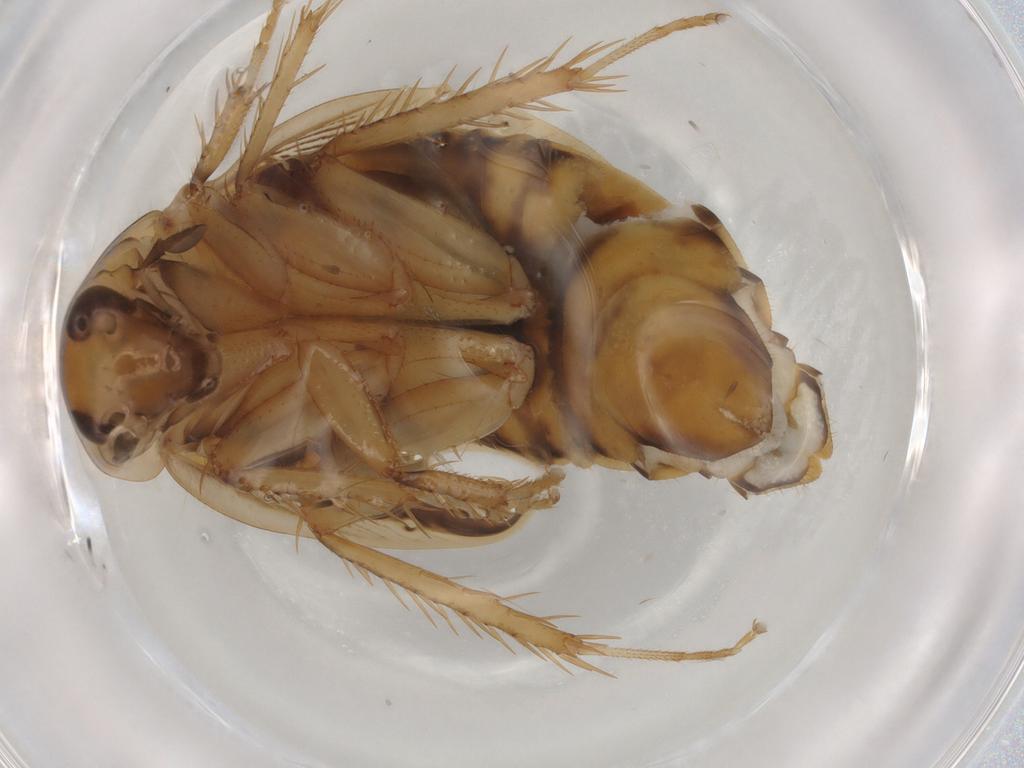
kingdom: Animalia
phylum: Arthropoda
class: Insecta
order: Blattodea
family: Ectobiidae
